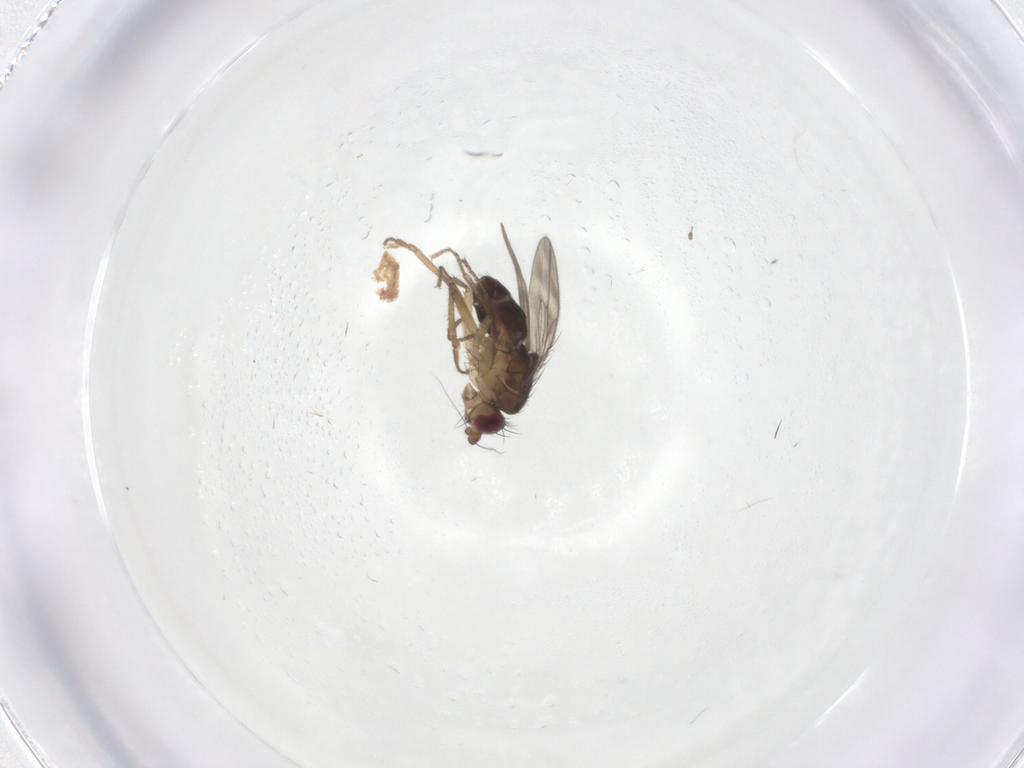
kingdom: Animalia
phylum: Arthropoda
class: Insecta
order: Diptera
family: Sphaeroceridae
